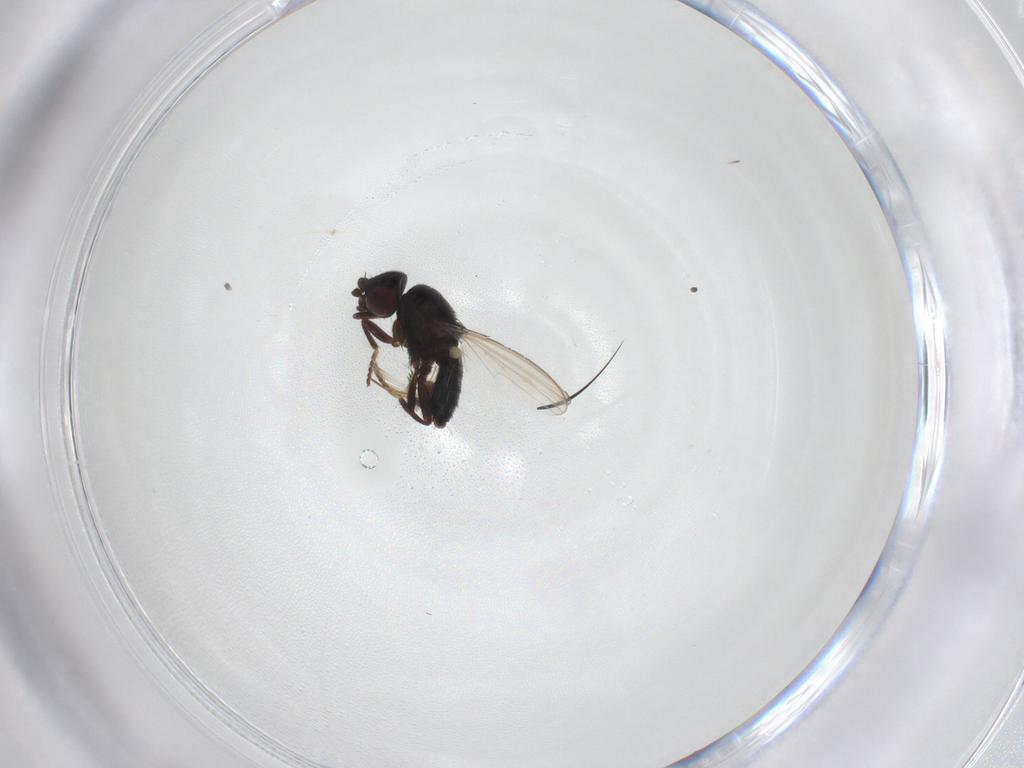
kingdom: Animalia
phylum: Arthropoda
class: Insecta
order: Diptera
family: Milichiidae
